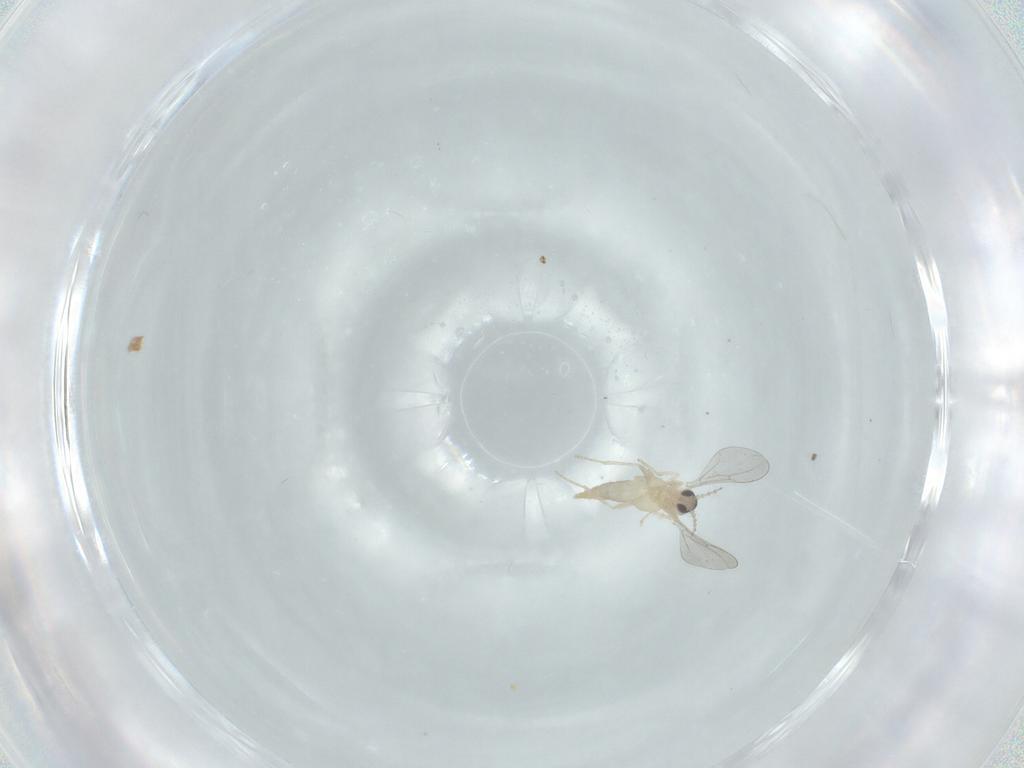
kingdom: Animalia
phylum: Arthropoda
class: Insecta
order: Diptera
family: Cecidomyiidae
